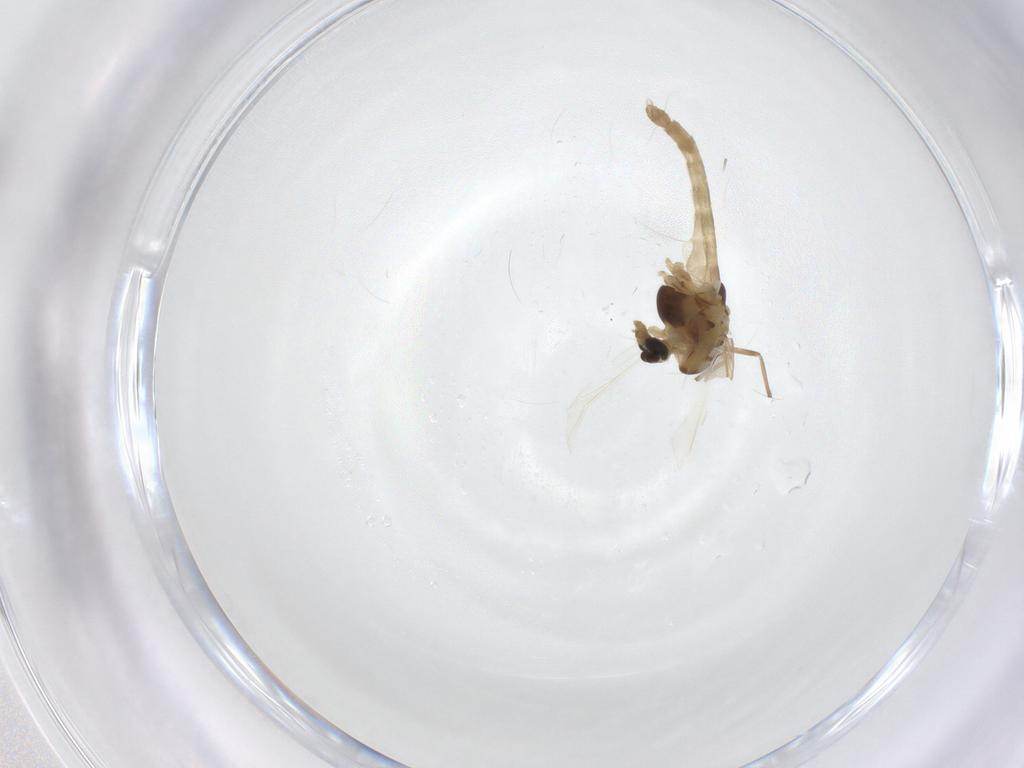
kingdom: Animalia
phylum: Arthropoda
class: Insecta
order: Diptera
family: Chironomidae
